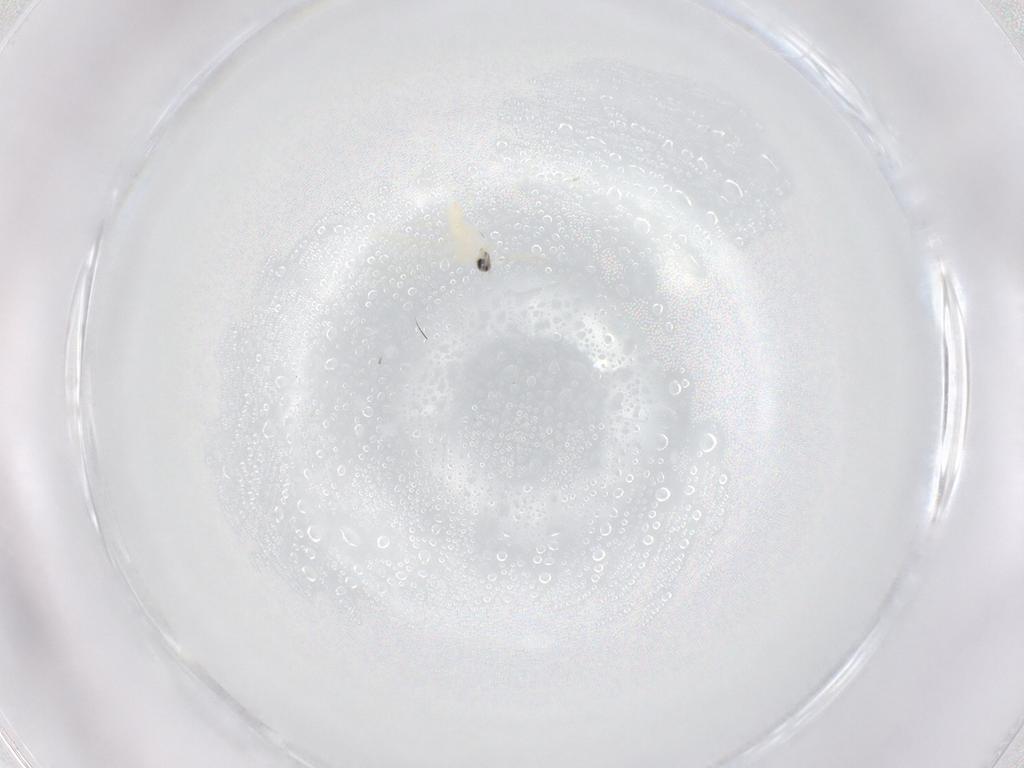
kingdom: Animalia
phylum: Arthropoda
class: Insecta
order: Diptera
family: Cecidomyiidae
